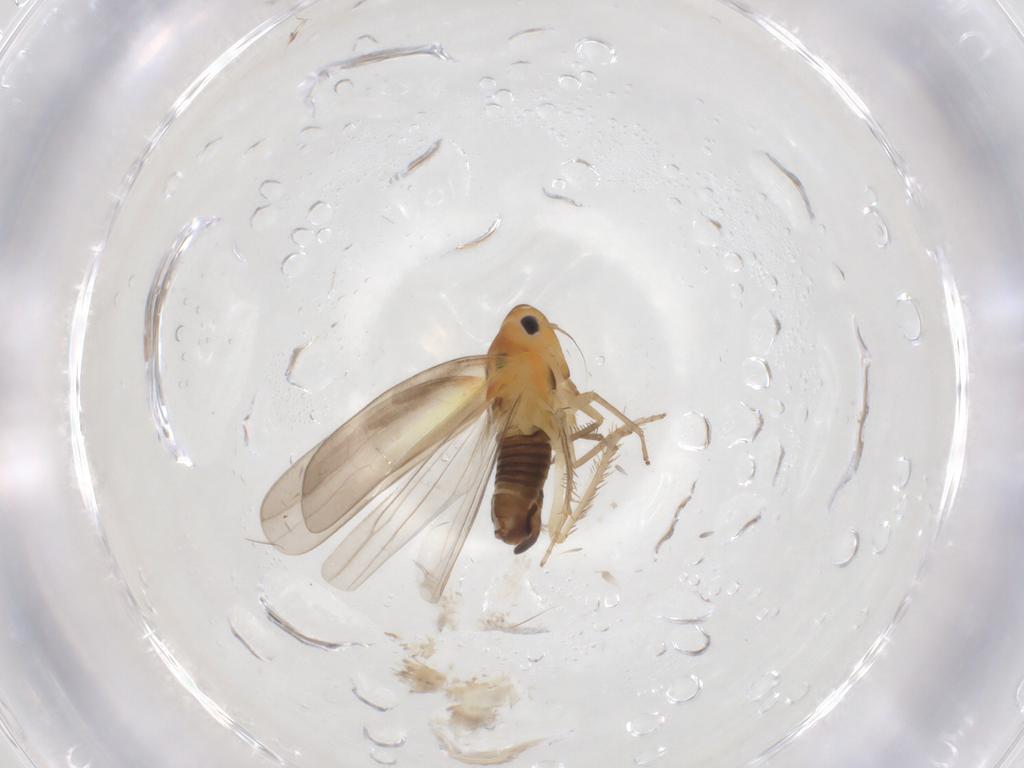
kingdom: Animalia
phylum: Arthropoda
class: Insecta
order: Hemiptera
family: Cicadellidae
